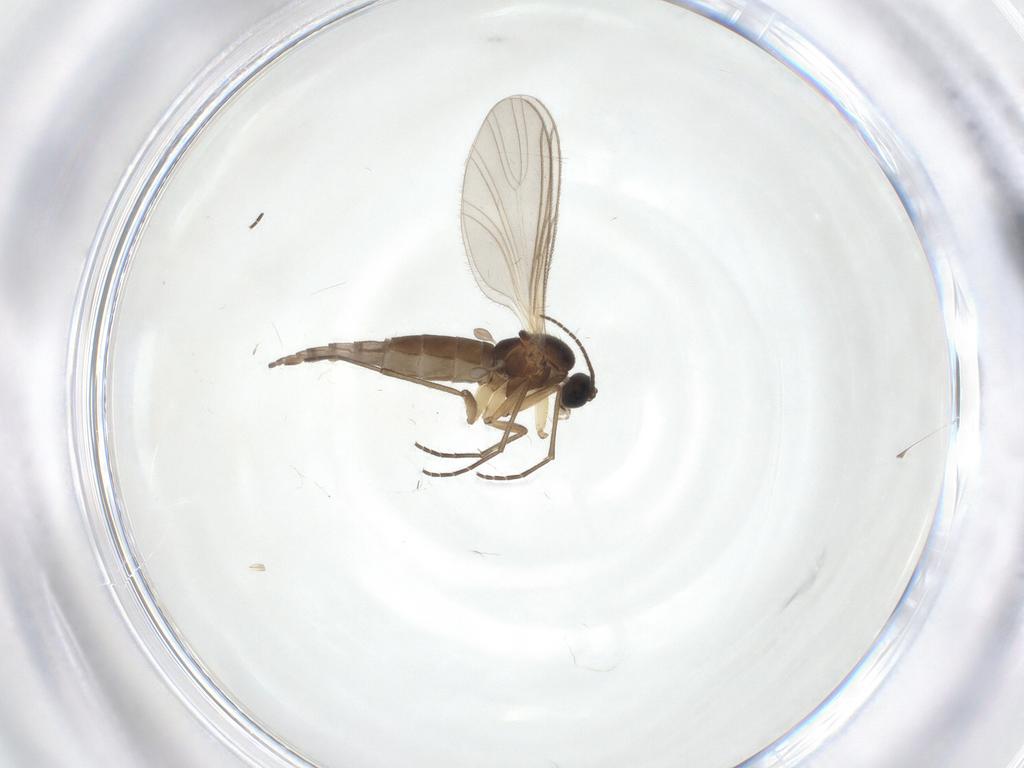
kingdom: Animalia
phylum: Arthropoda
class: Insecta
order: Diptera
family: Sciaridae
